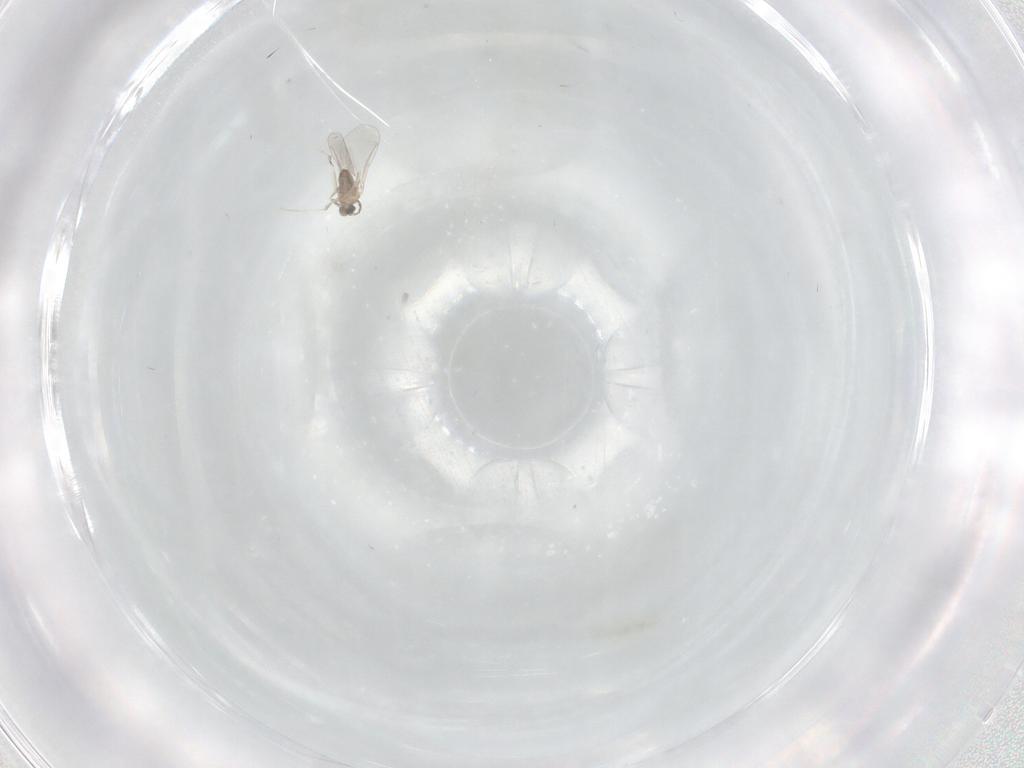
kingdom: Animalia
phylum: Arthropoda
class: Insecta
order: Diptera
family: Cecidomyiidae
